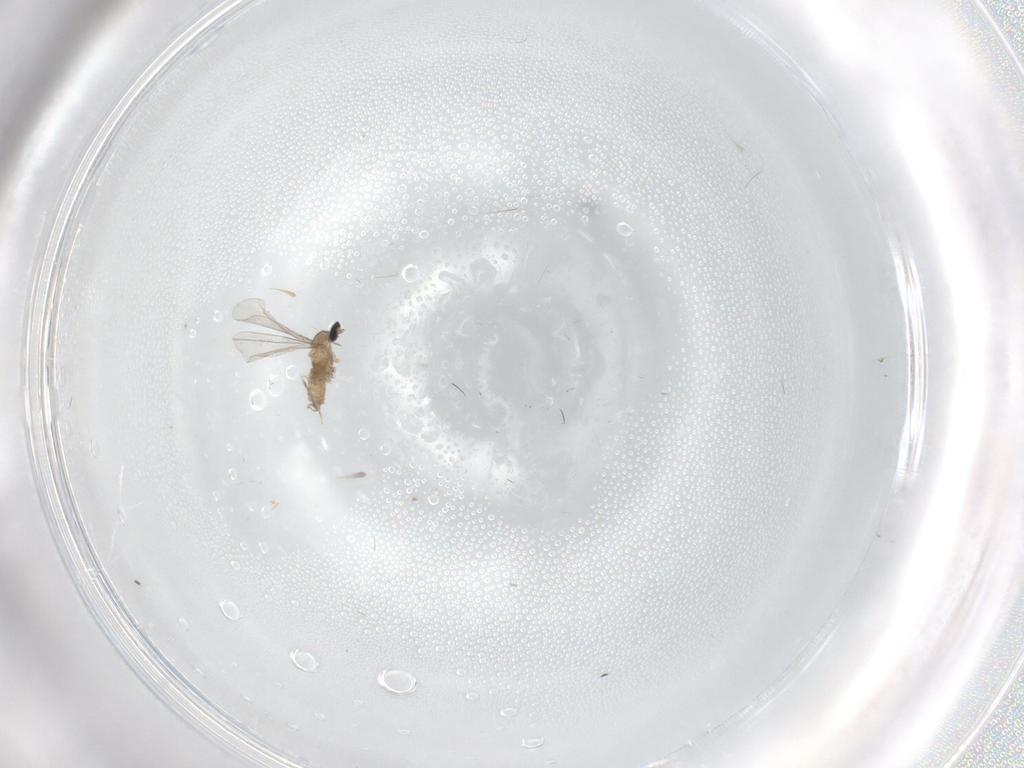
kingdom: Animalia
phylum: Arthropoda
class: Insecta
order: Diptera
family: Sciaridae
